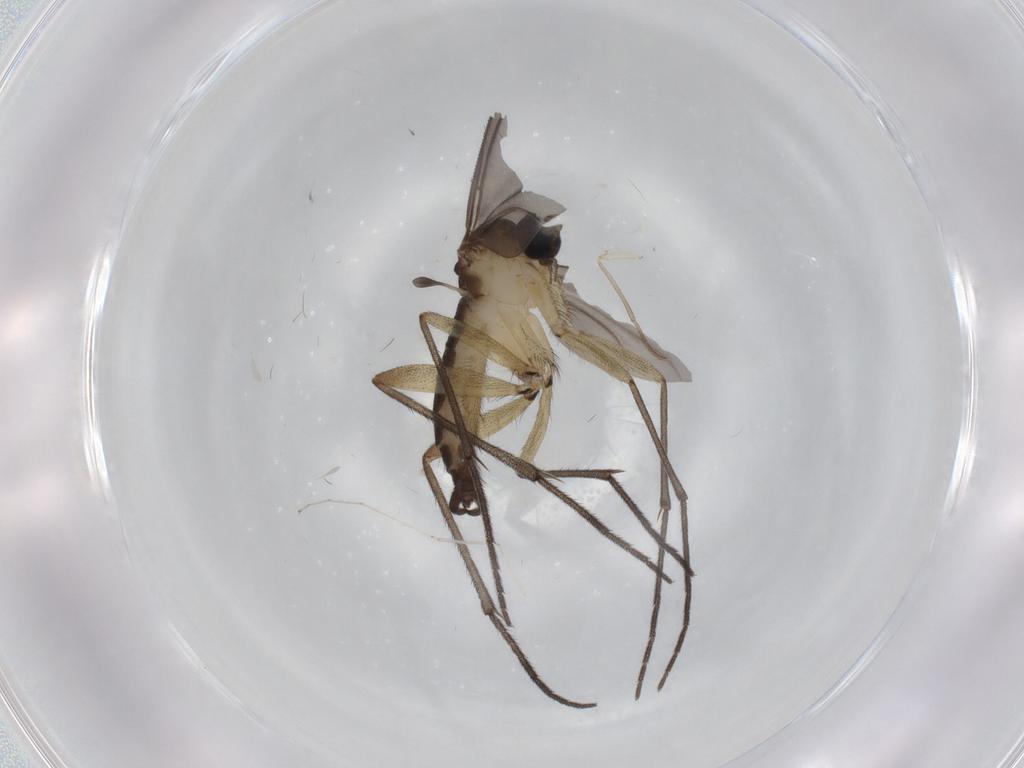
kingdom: Animalia
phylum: Arthropoda
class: Insecta
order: Diptera
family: Sciaridae
